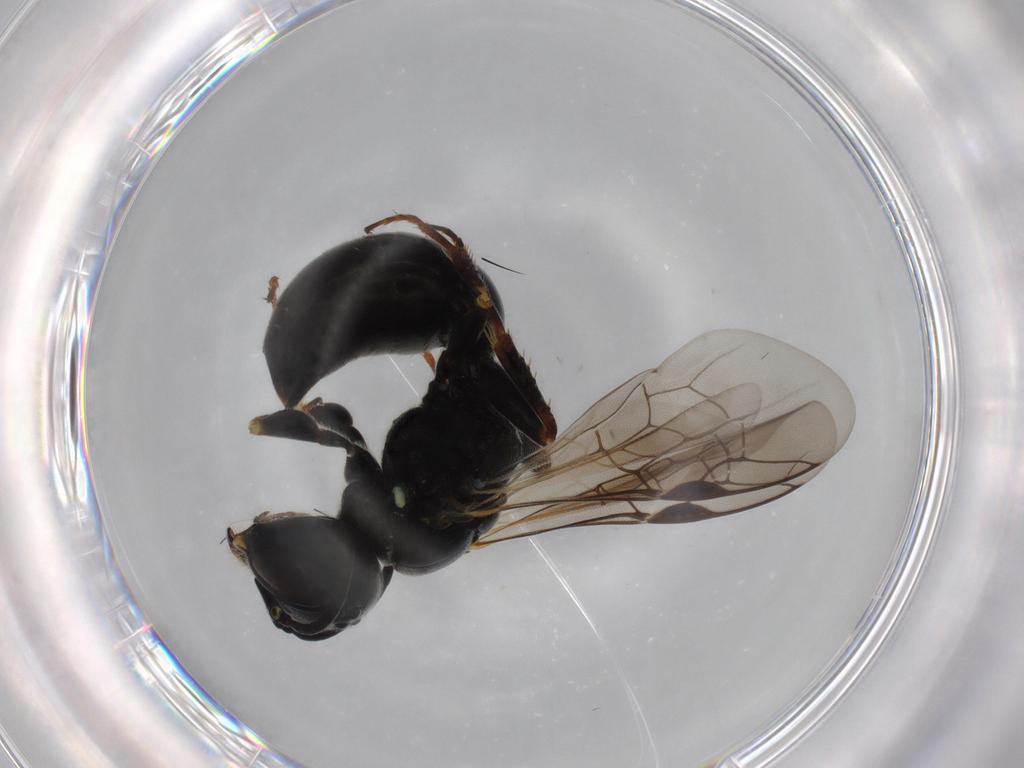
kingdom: Animalia
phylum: Arthropoda
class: Insecta
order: Hymenoptera
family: Crabronidae
